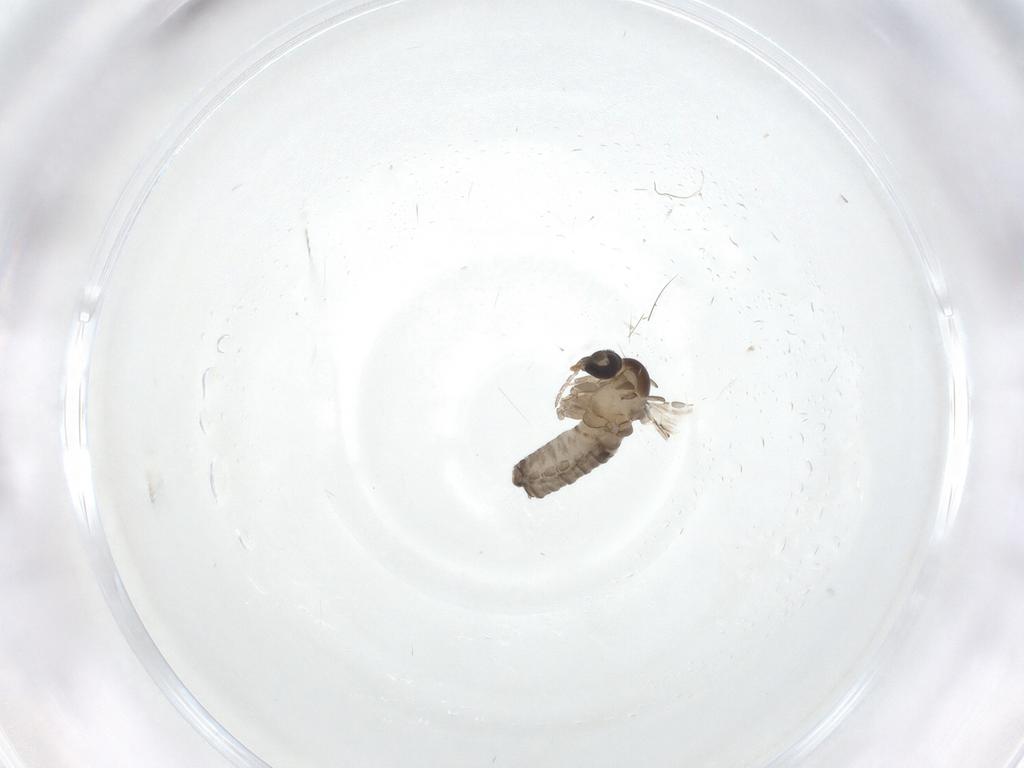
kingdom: Animalia
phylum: Arthropoda
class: Insecta
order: Diptera
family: Psychodidae
